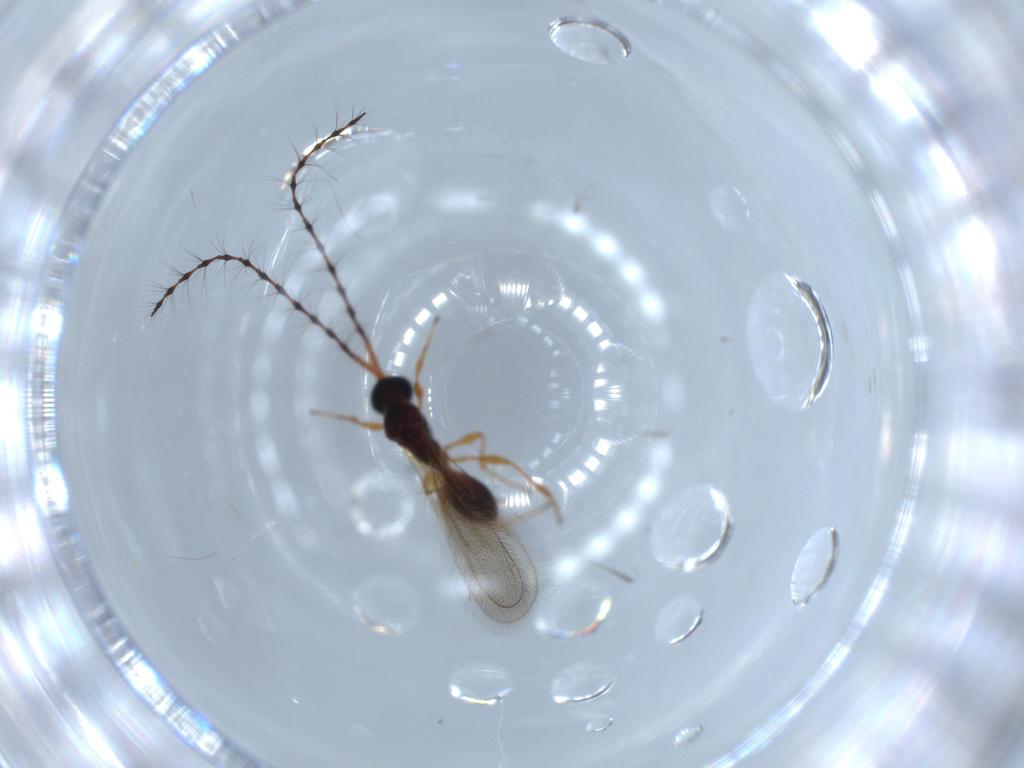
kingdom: Animalia
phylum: Arthropoda
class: Insecta
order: Hymenoptera
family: Diapriidae
